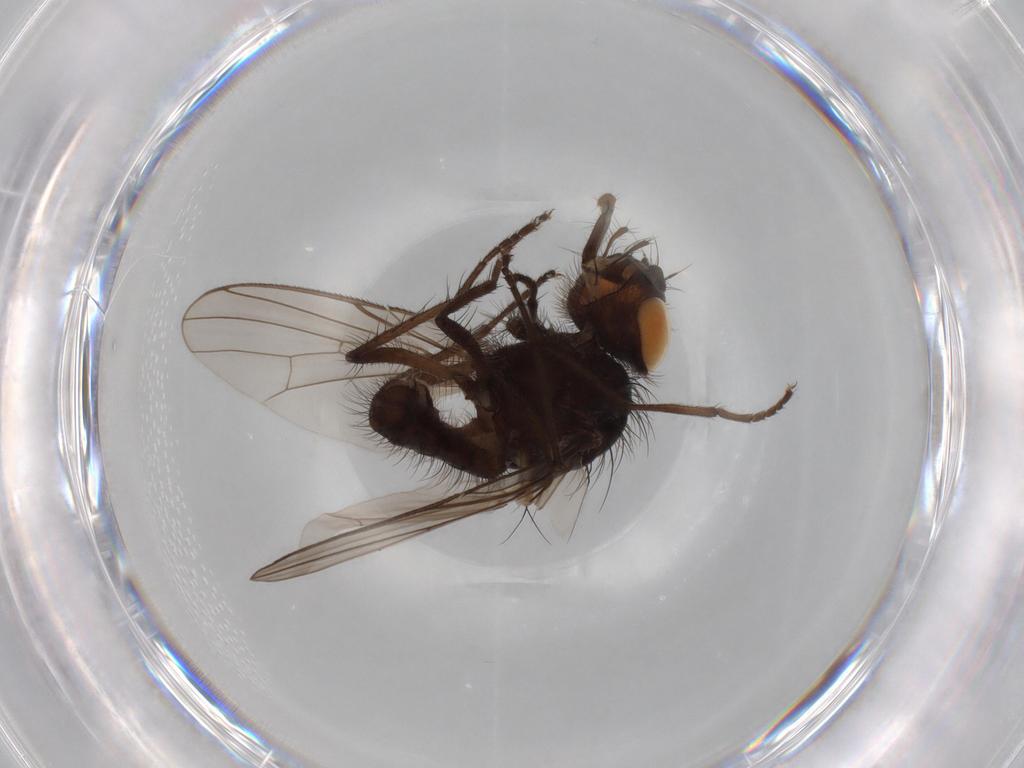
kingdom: Animalia
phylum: Arthropoda
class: Insecta
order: Diptera
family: Anthomyiidae
